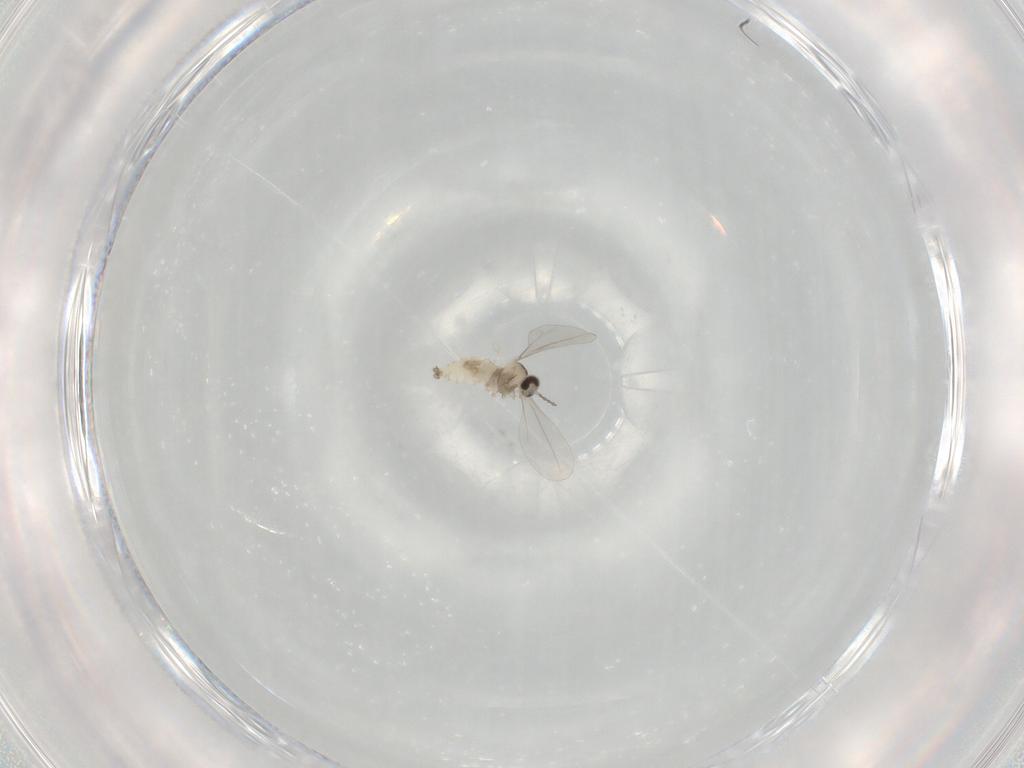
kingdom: Animalia
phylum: Arthropoda
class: Insecta
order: Diptera
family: Cecidomyiidae
